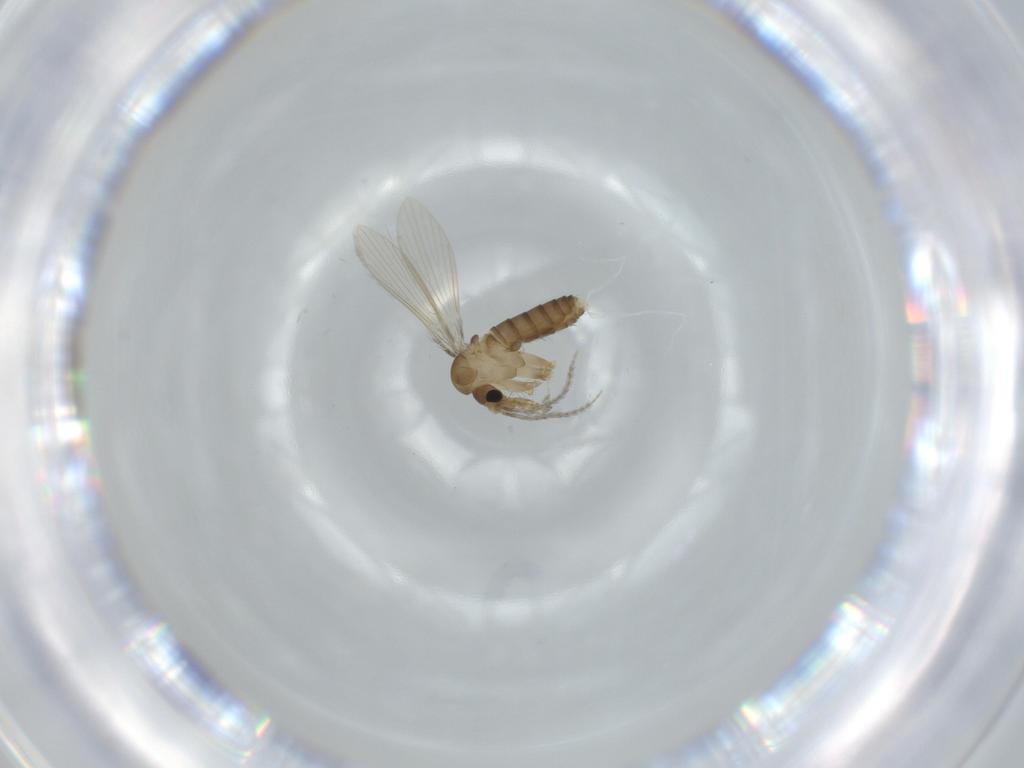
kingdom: Animalia
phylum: Arthropoda
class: Insecta
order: Diptera
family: Psychodidae
